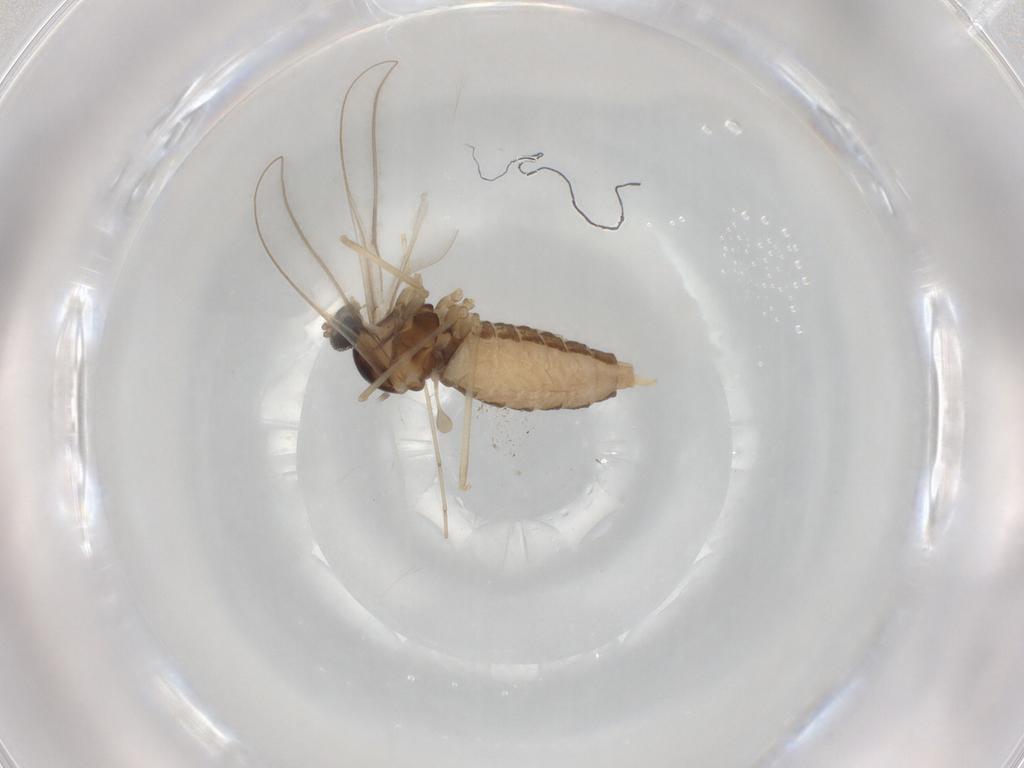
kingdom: Animalia
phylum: Arthropoda
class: Insecta
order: Diptera
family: Cecidomyiidae
